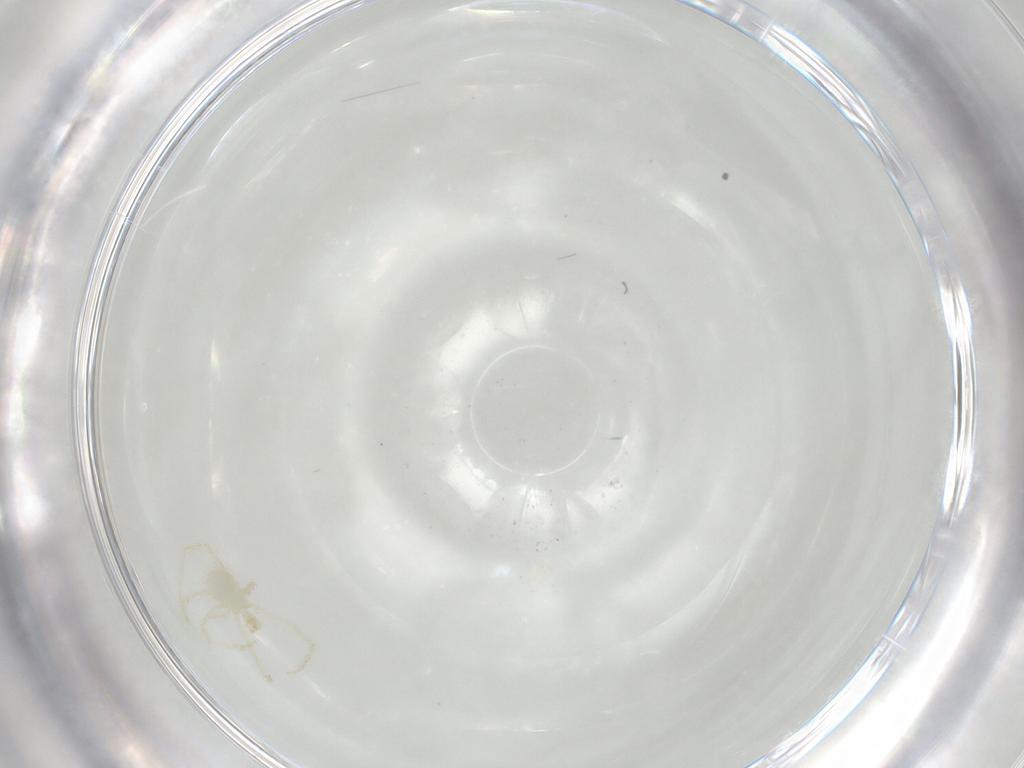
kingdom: Animalia
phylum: Arthropoda
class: Arachnida
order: Trombidiformes
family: Erythraeidae
